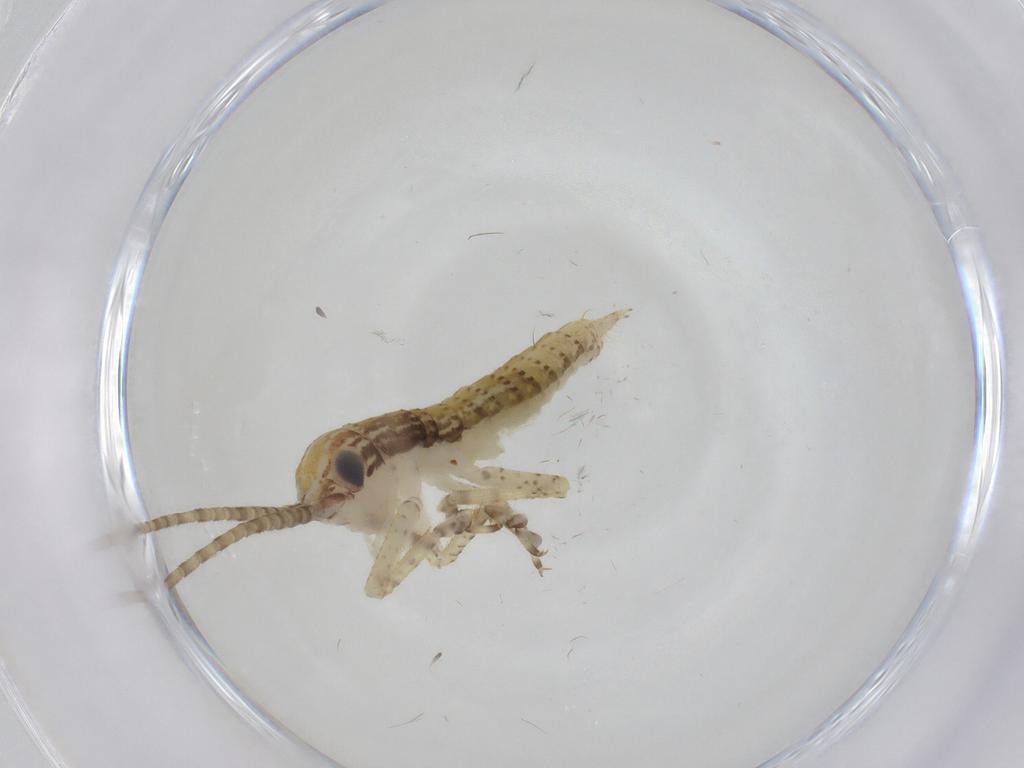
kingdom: Animalia
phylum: Arthropoda
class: Insecta
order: Orthoptera
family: Gryllidae
